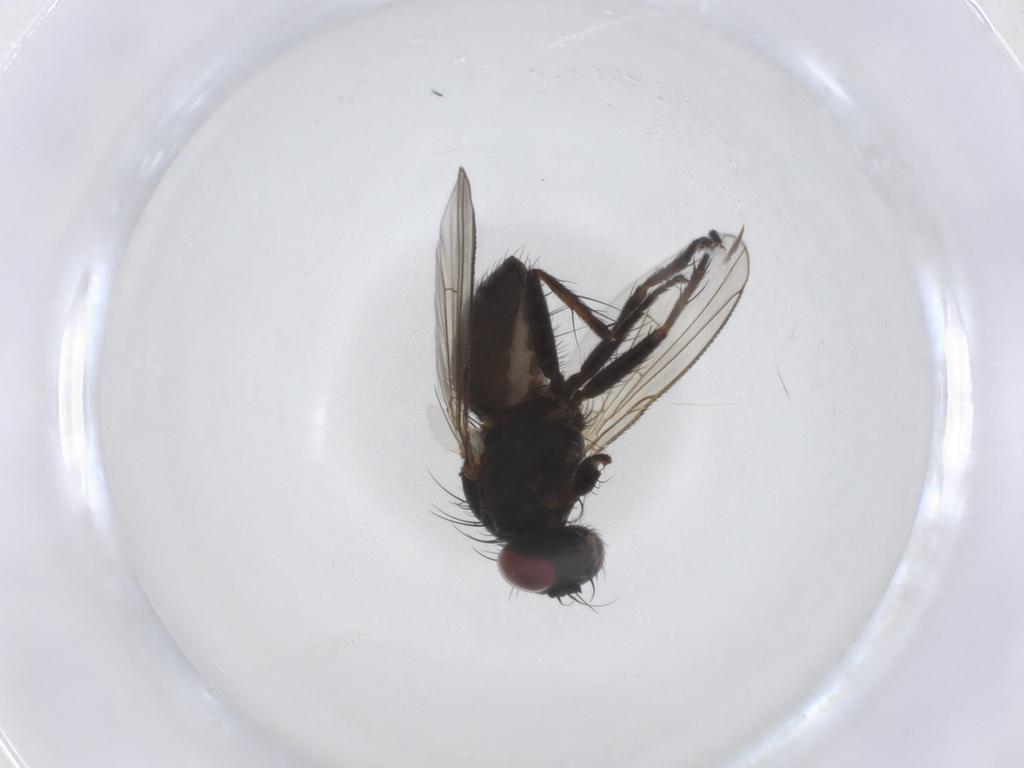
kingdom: Animalia
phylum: Arthropoda
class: Insecta
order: Diptera
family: Muscidae
